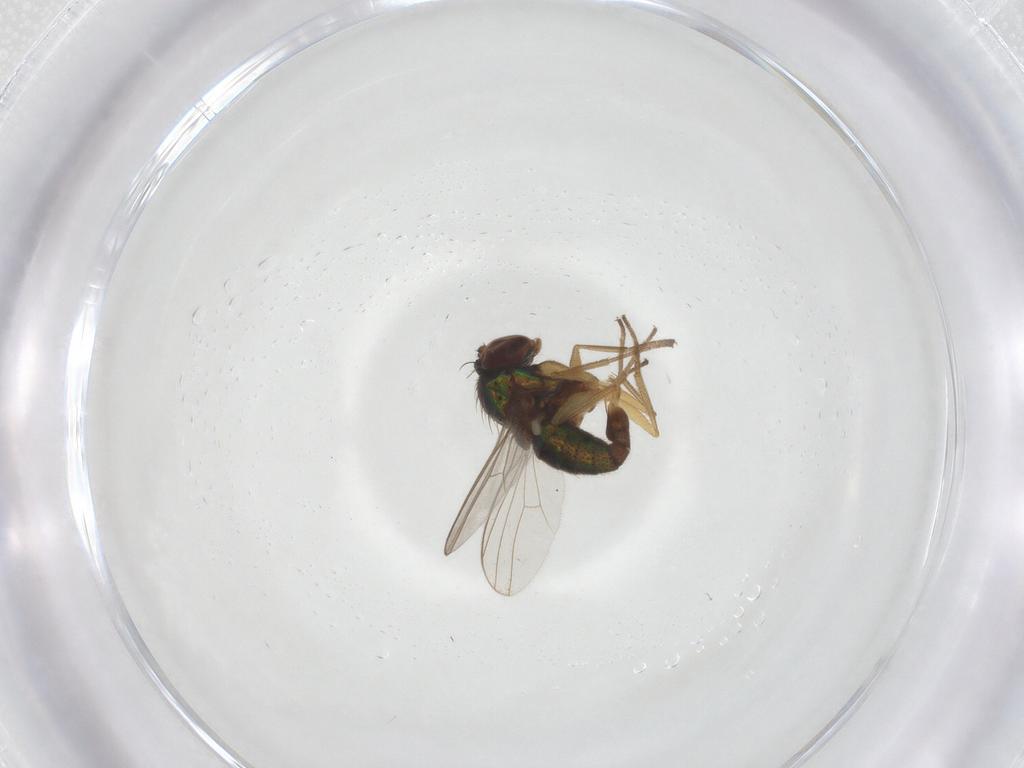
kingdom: Animalia
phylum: Arthropoda
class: Insecta
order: Diptera
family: Dolichopodidae
